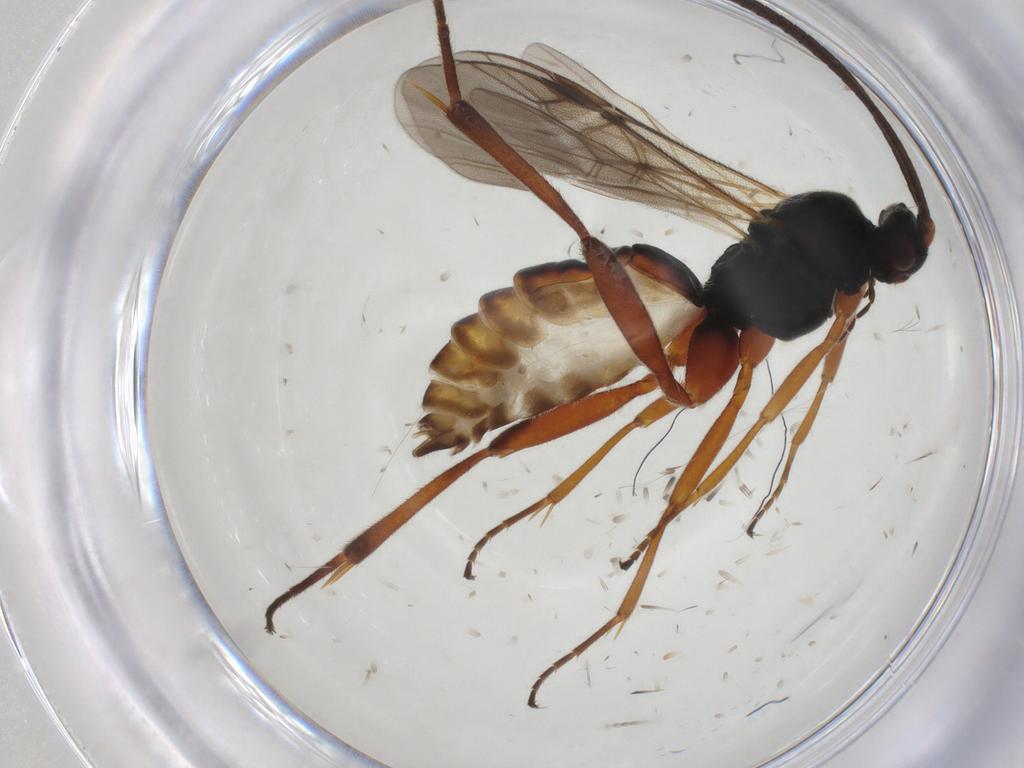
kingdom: Animalia
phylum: Arthropoda
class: Insecta
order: Hymenoptera
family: Braconidae
